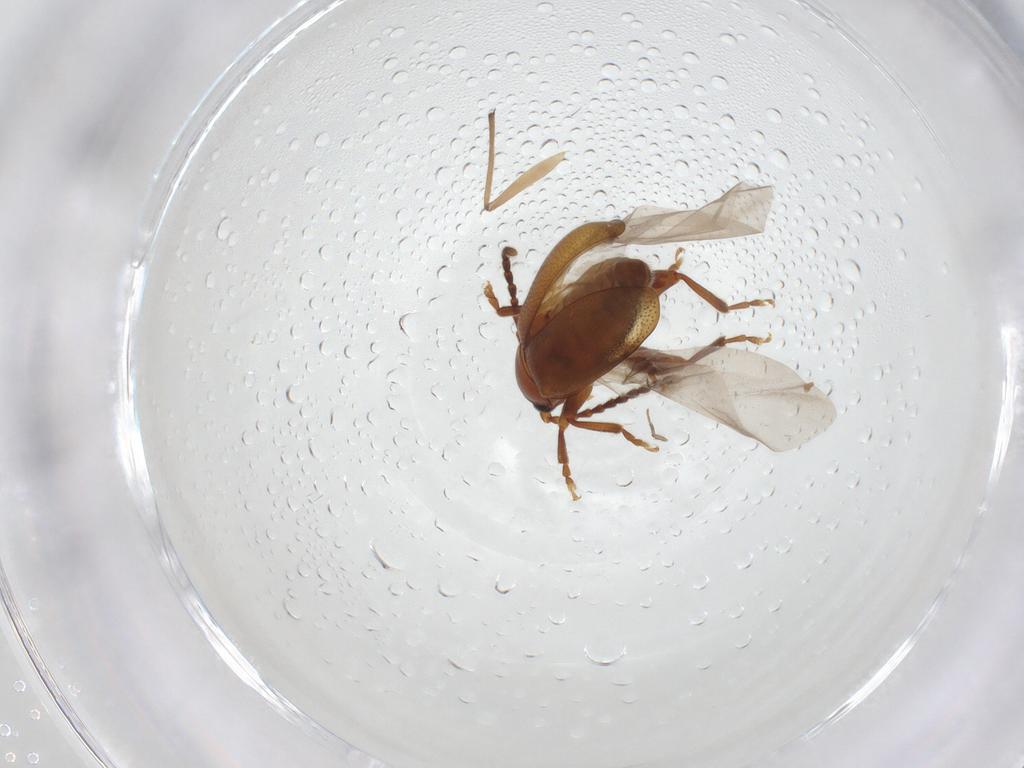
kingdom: Animalia
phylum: Arthropoda
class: Insecta
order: Coleoptera
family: Chrysomelidae
